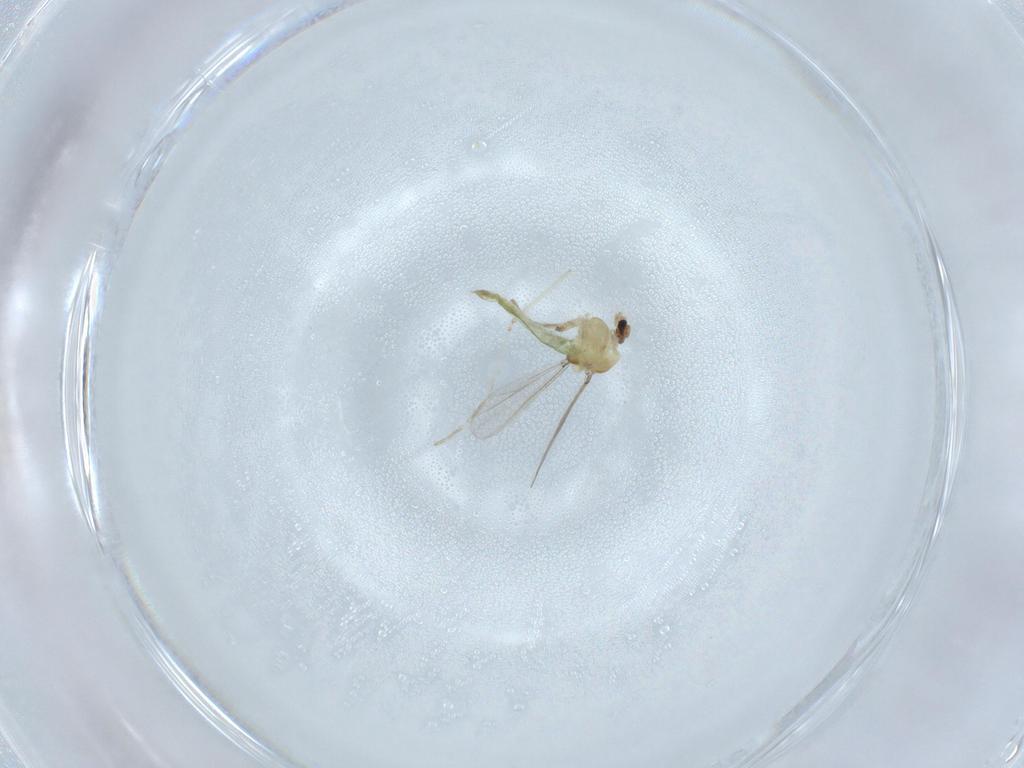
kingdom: Animalia
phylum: Arthropoda
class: Insecta
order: Diptera
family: Chironomidae
